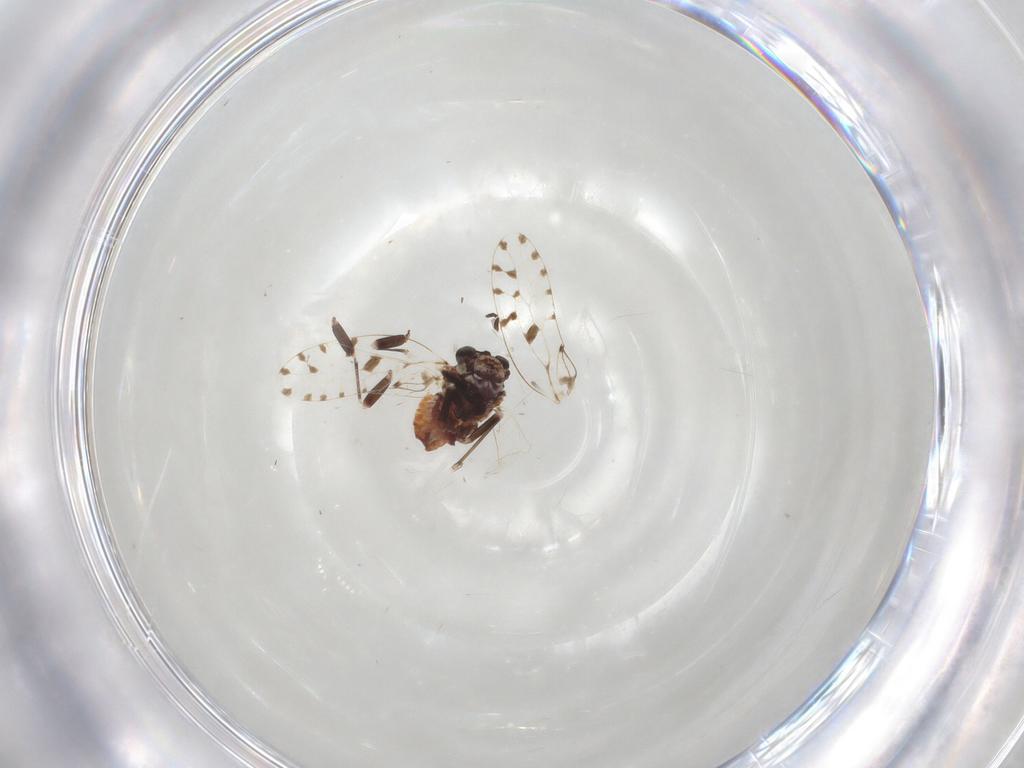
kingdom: Animalia
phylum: Arthropoda
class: Insecta
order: Psocodea
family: Psoquillidae
